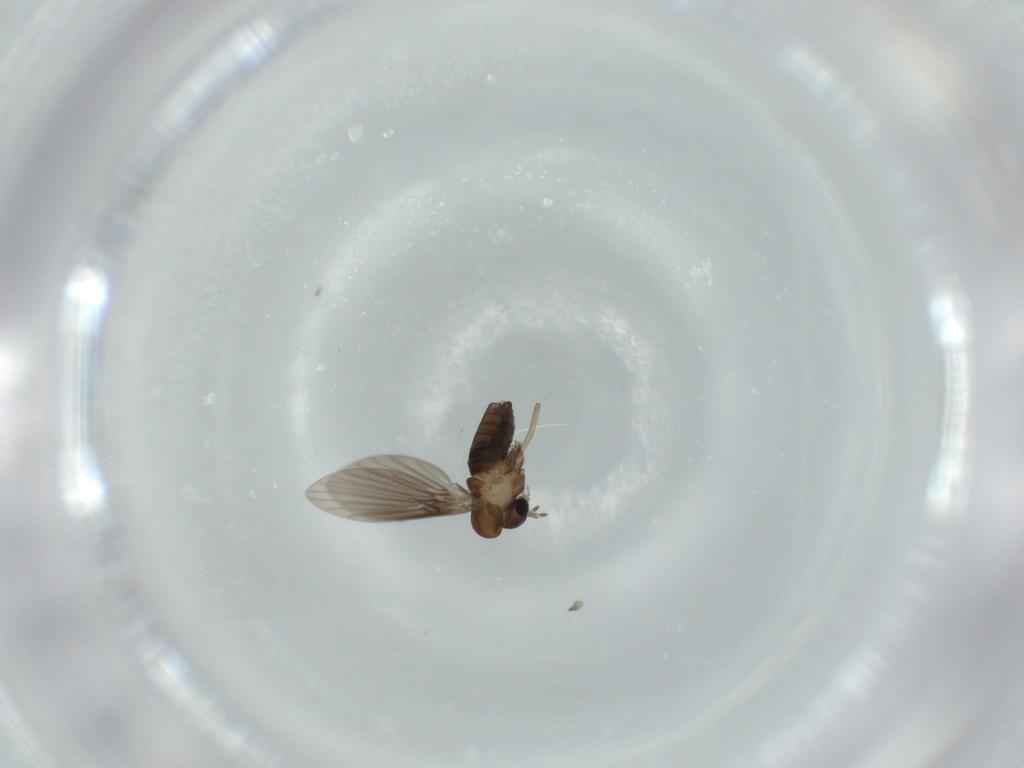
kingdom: Animalia
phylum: Arthropoda
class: Insecta
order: Diptera
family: Psychodidae
